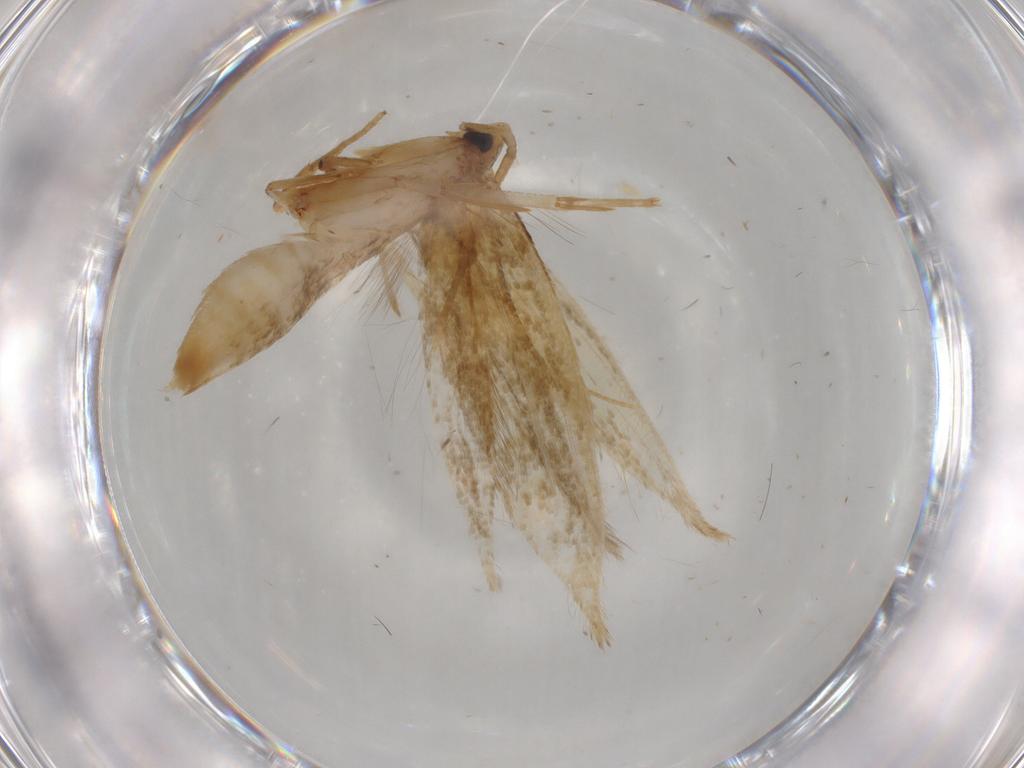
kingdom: Animalia
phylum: Arthropoda
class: Insecta
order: Lepidoptera
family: Tineidae
